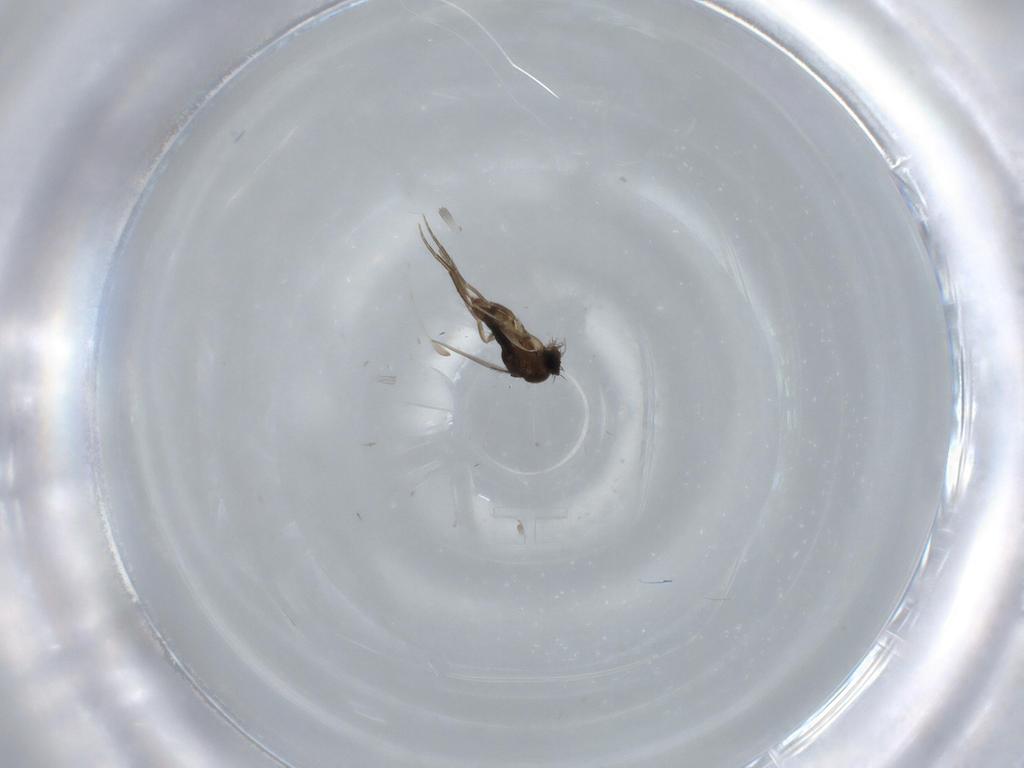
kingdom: Animalia
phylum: Arthropoda
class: Insecta
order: Diptera
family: Phoridae
